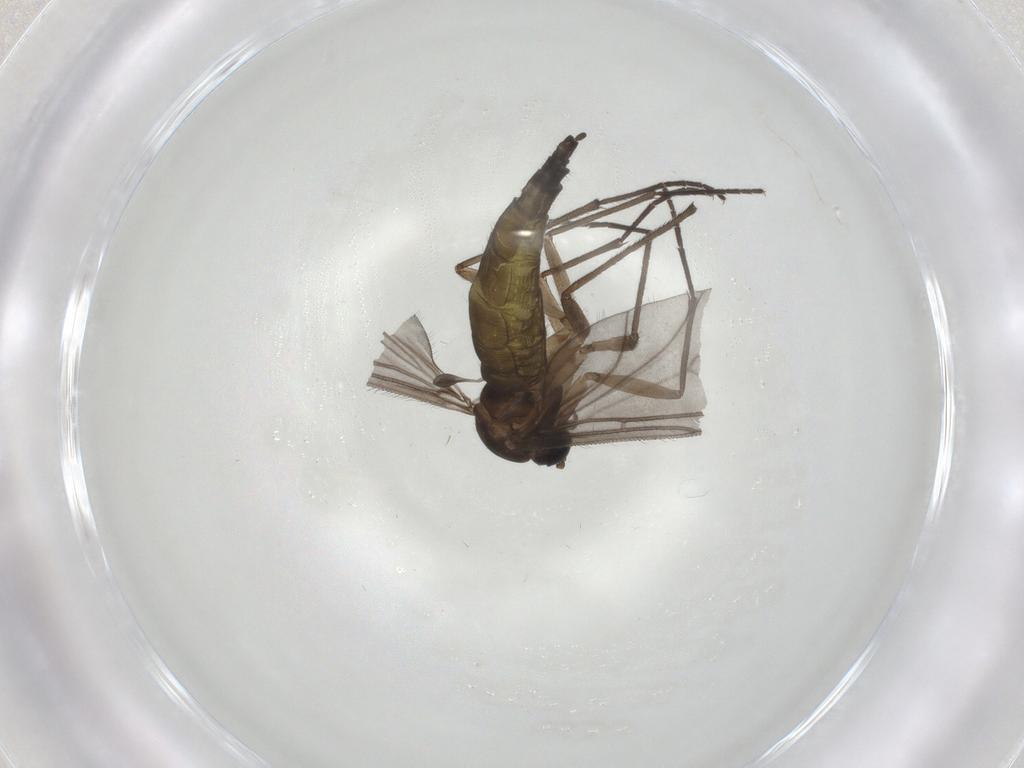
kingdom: Animalia
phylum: Arthropoda
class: Insecta
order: Diptera
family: Sciaridae
